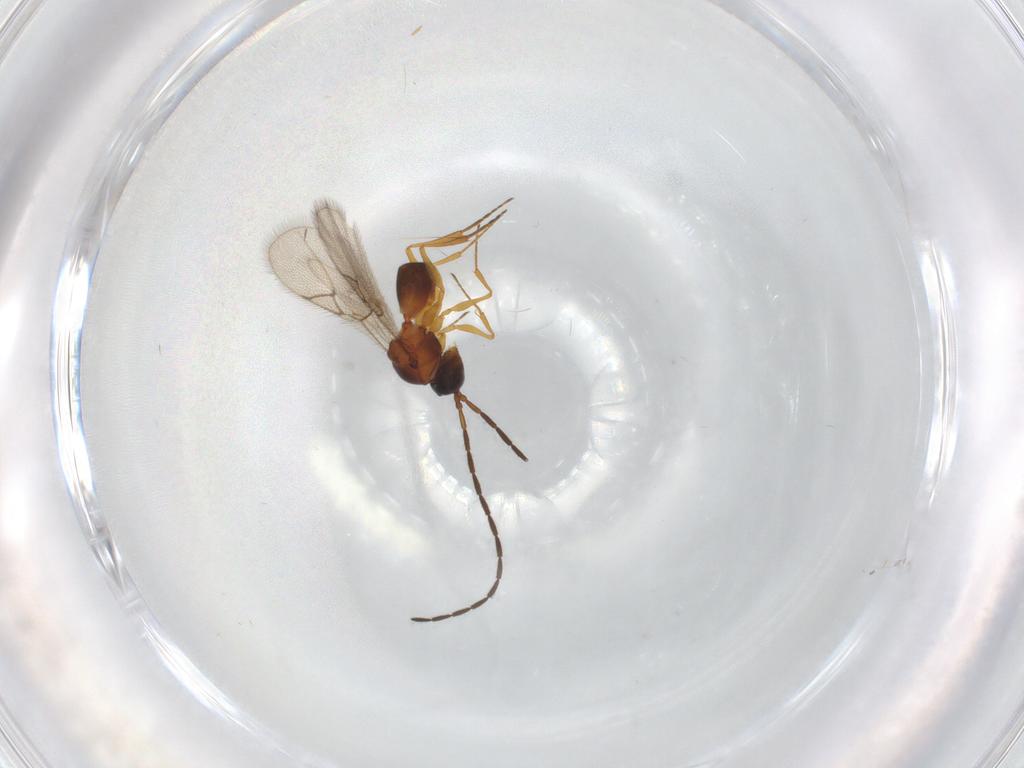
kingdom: Animalia
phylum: Arthropoda
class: Insecta
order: Hymenoptera
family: Figitidae
